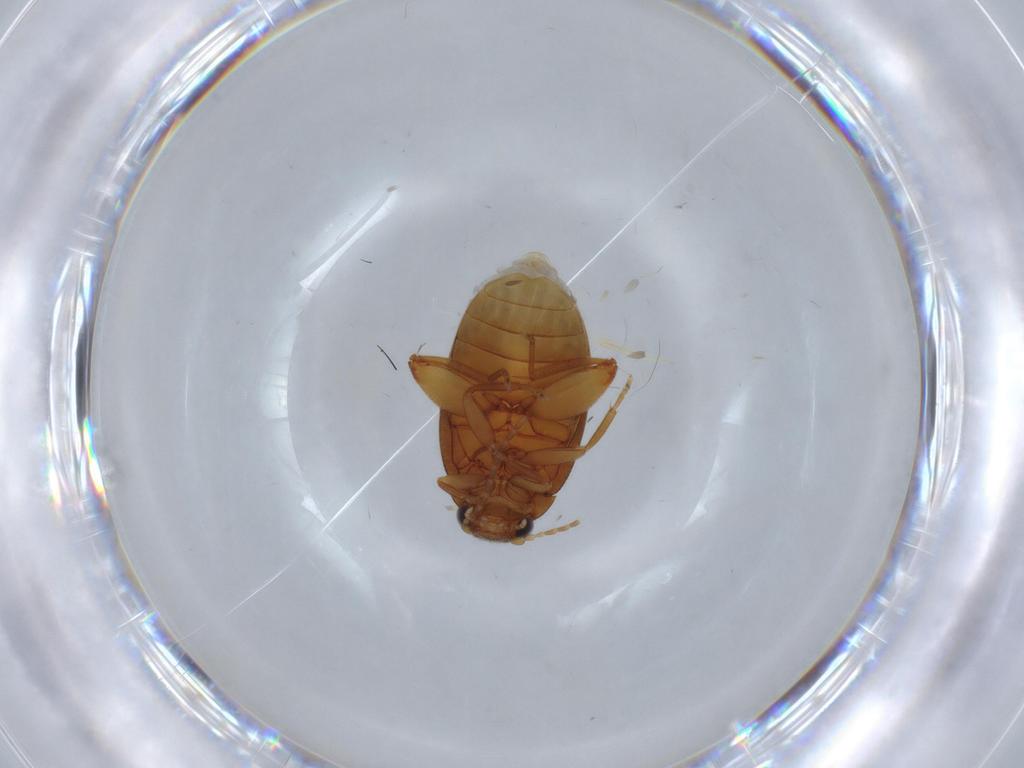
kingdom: Animalia
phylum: Arthropoda
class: Insecta
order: Coleoptera
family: Scirtidae
